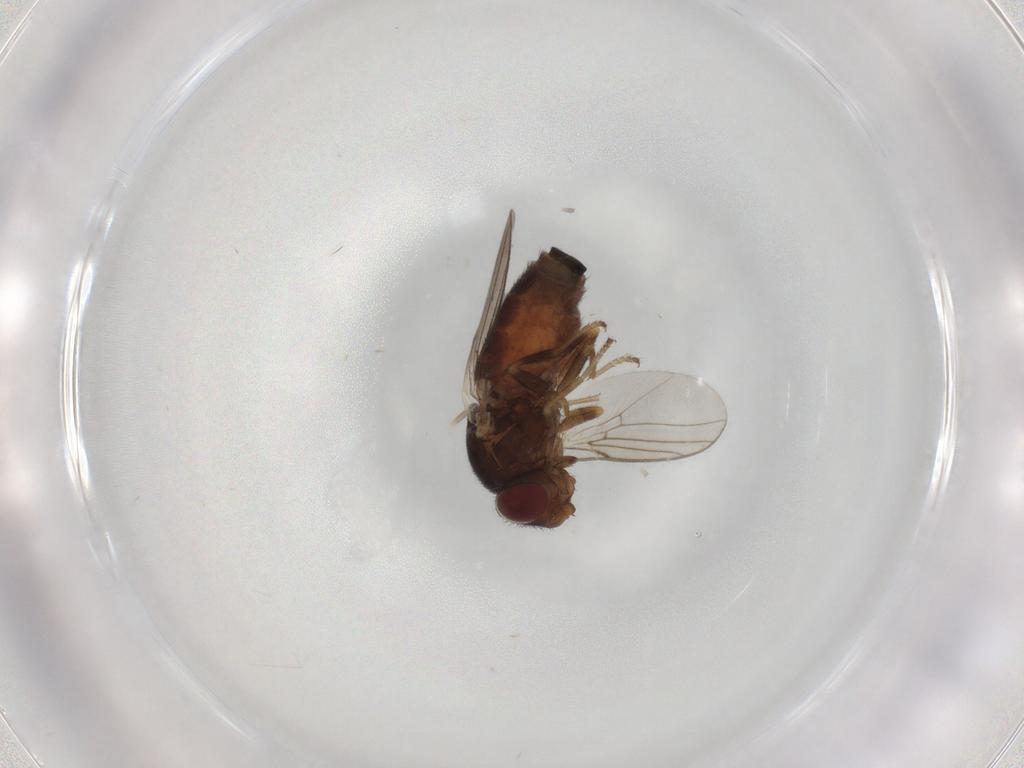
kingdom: Animalia
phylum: Arthropoda
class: Insecta
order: Diptera
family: Chloropidae
